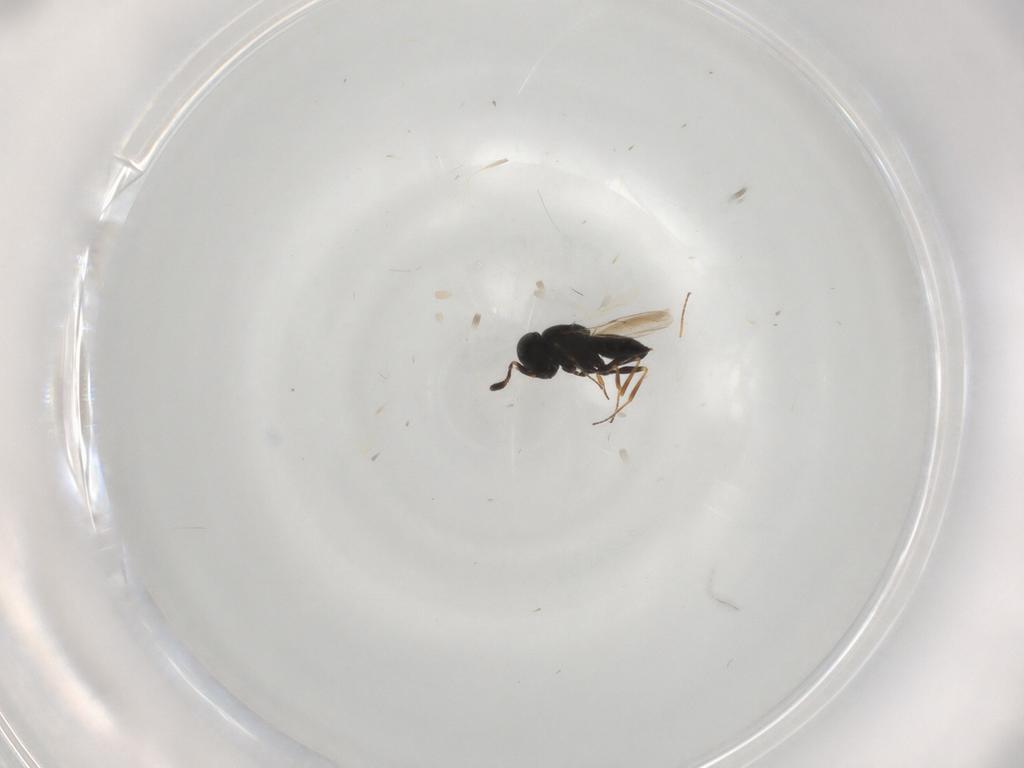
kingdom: Animalia
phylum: Arthropoda
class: Insecta
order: Hymenoptera
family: Scelionidae
